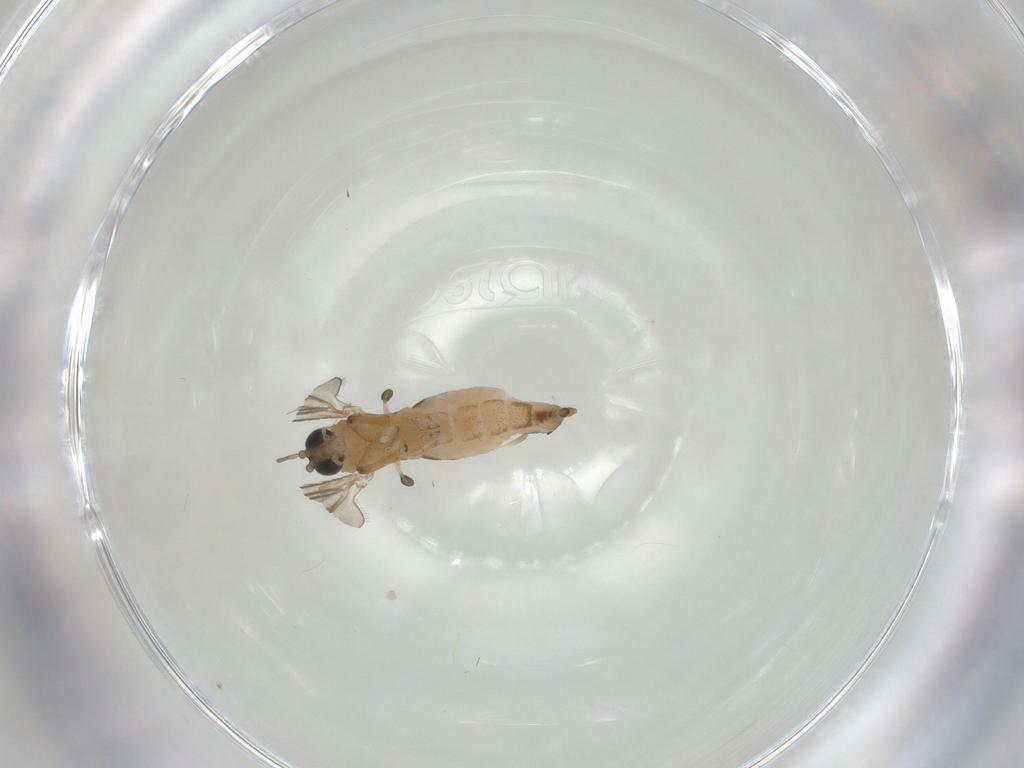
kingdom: Animalia
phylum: Arthropoda
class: Insecta
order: Diptera
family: Sciaridae
